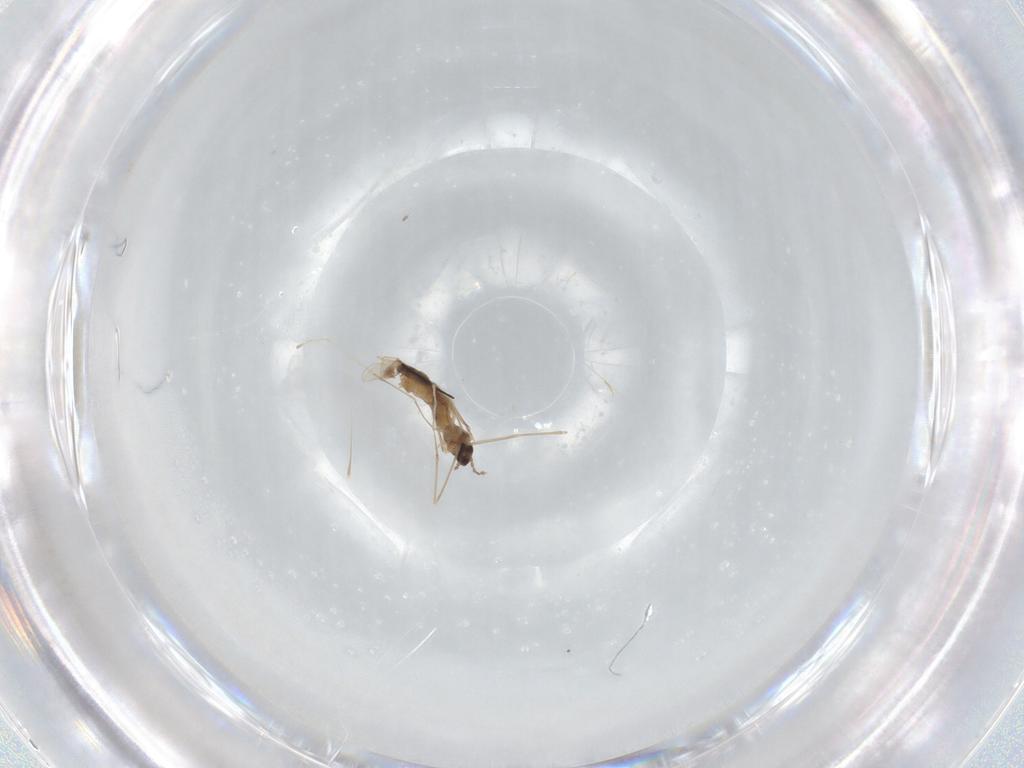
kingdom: Animalia
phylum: Arthropoda
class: Insecta
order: Diptera
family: Cecidomyiidae
